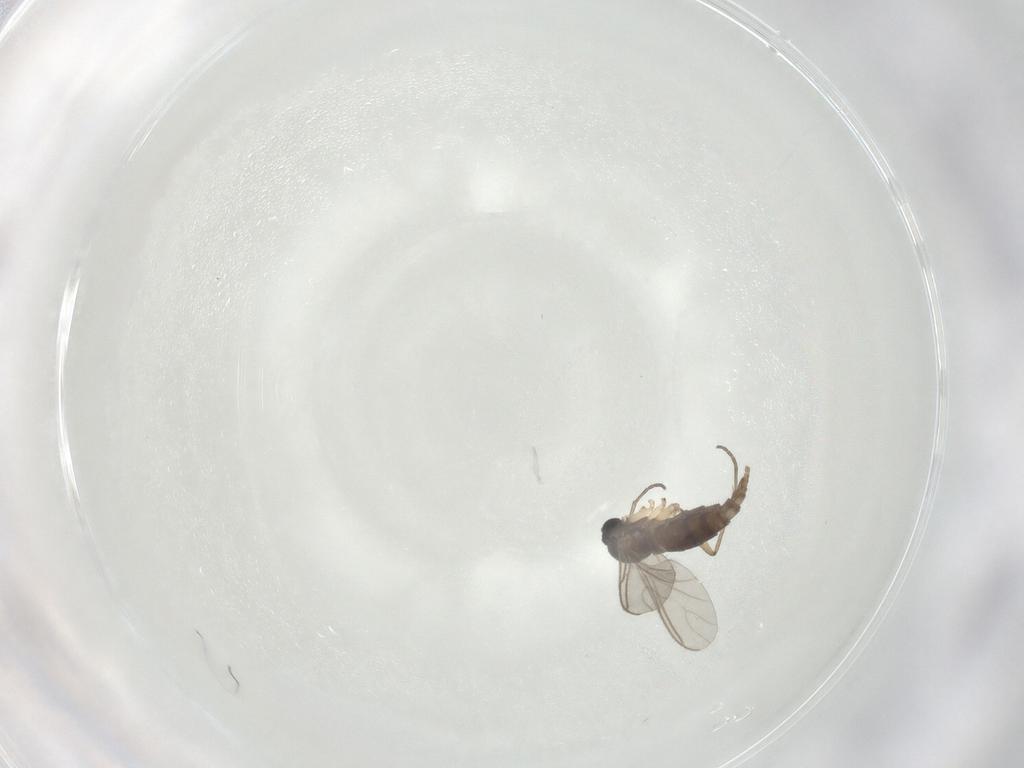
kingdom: Animalia
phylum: Arthropoda
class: Insecta
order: Diptera
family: Sciaridae
